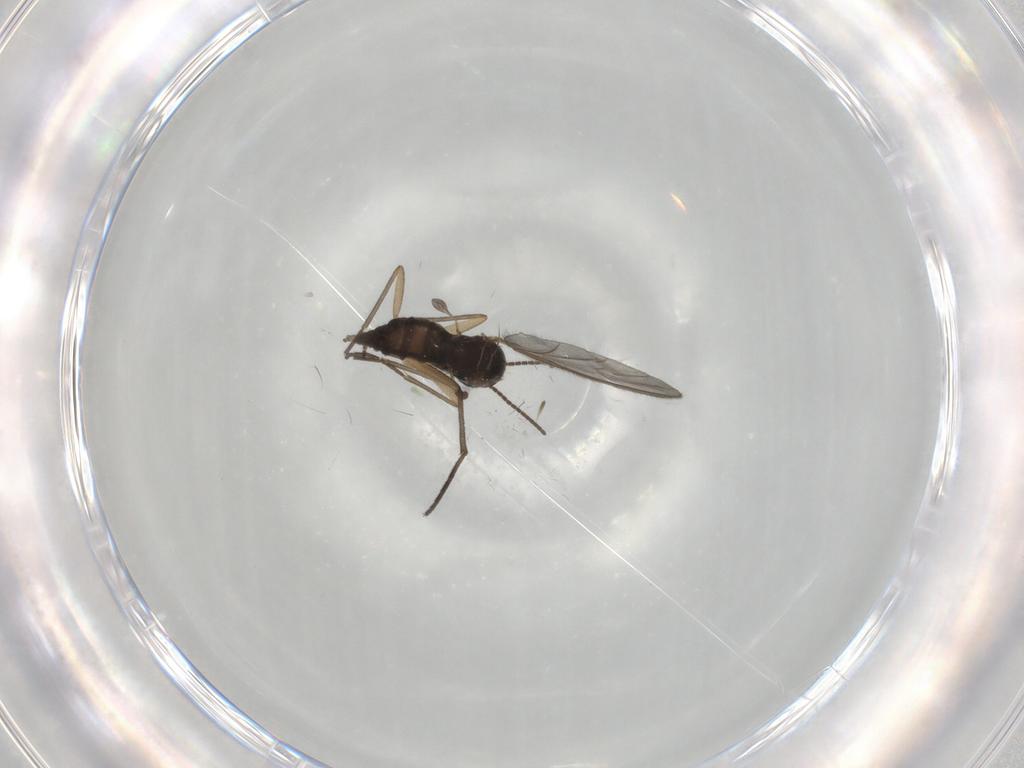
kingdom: Animalia
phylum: Arthropoda
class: Insecta
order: Diptera
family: Sciaridae
